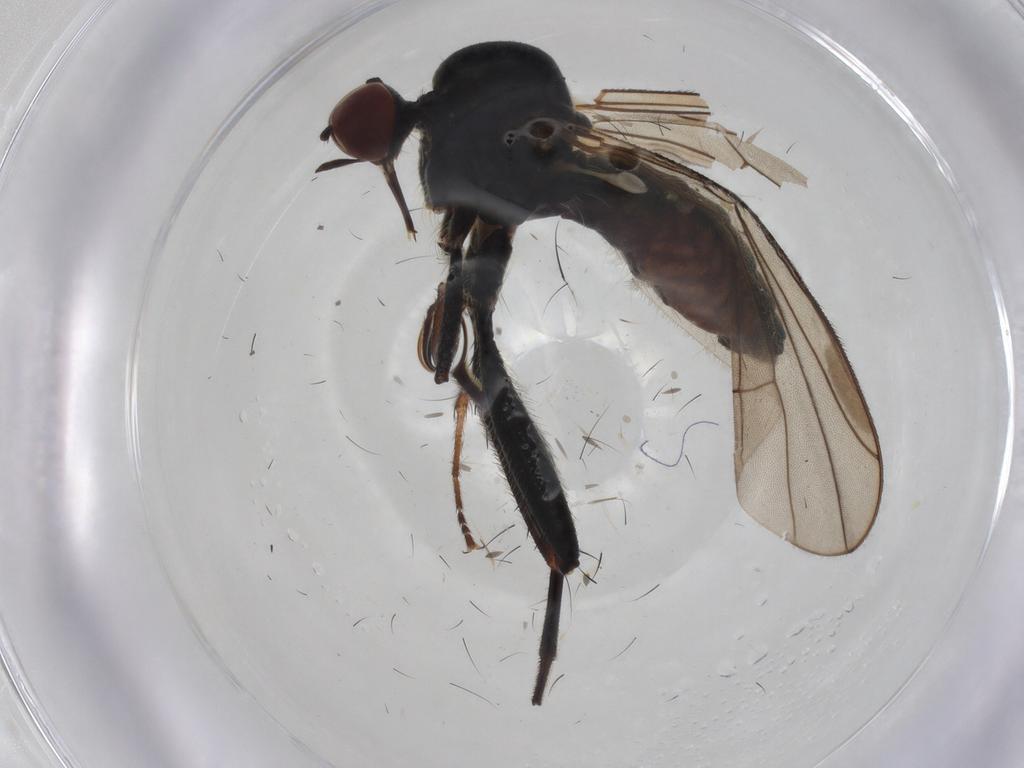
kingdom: Animalia
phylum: Arthropoda
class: Insecta
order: Diptera
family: Hybotidae
